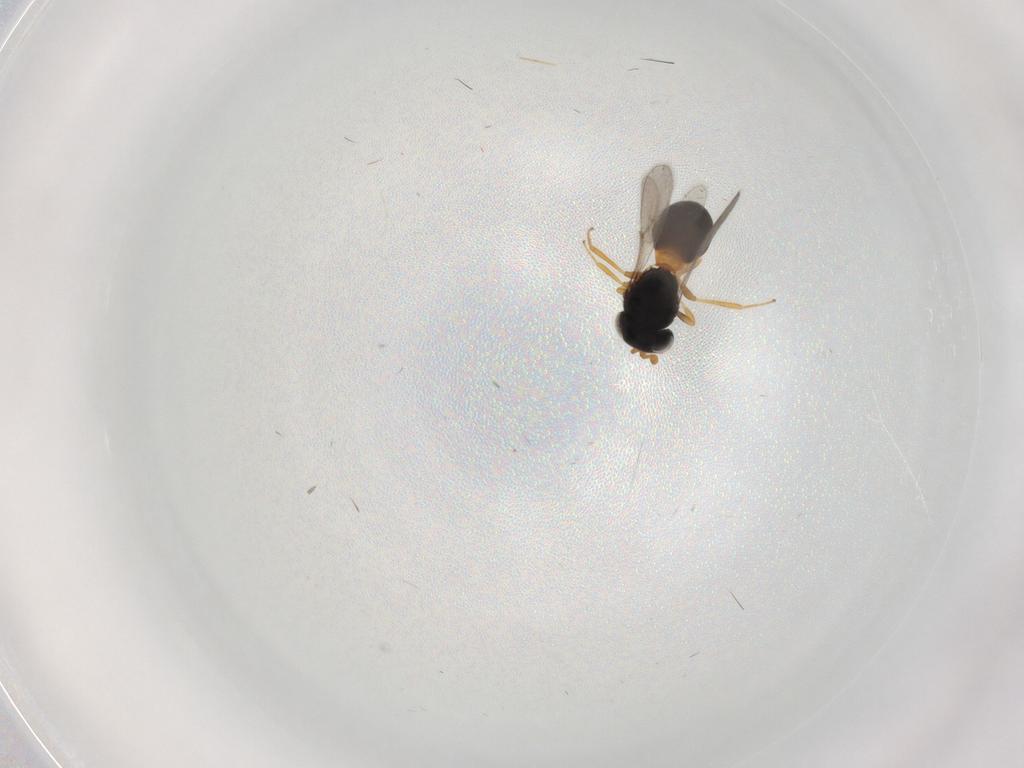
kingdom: Animalia
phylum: Arthropoda
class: Insecta
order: Hymenoptera
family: Scelionidae
